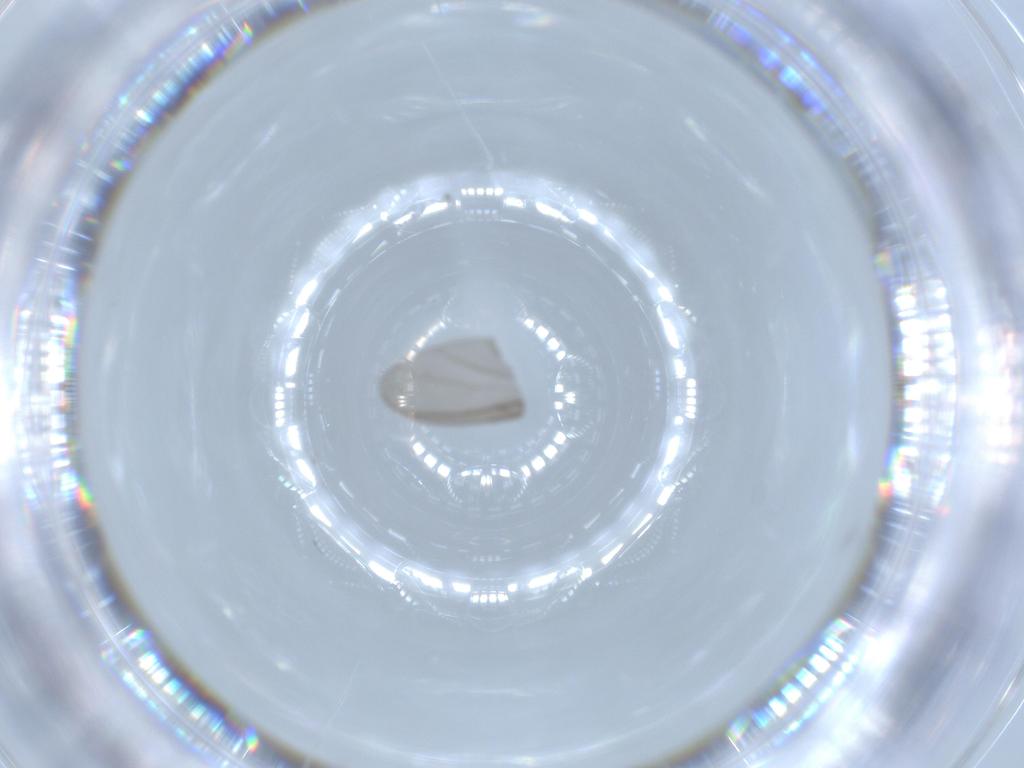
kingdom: Animalia
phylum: Arthropoda
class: Insecta
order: Diptera
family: Sciaridae
